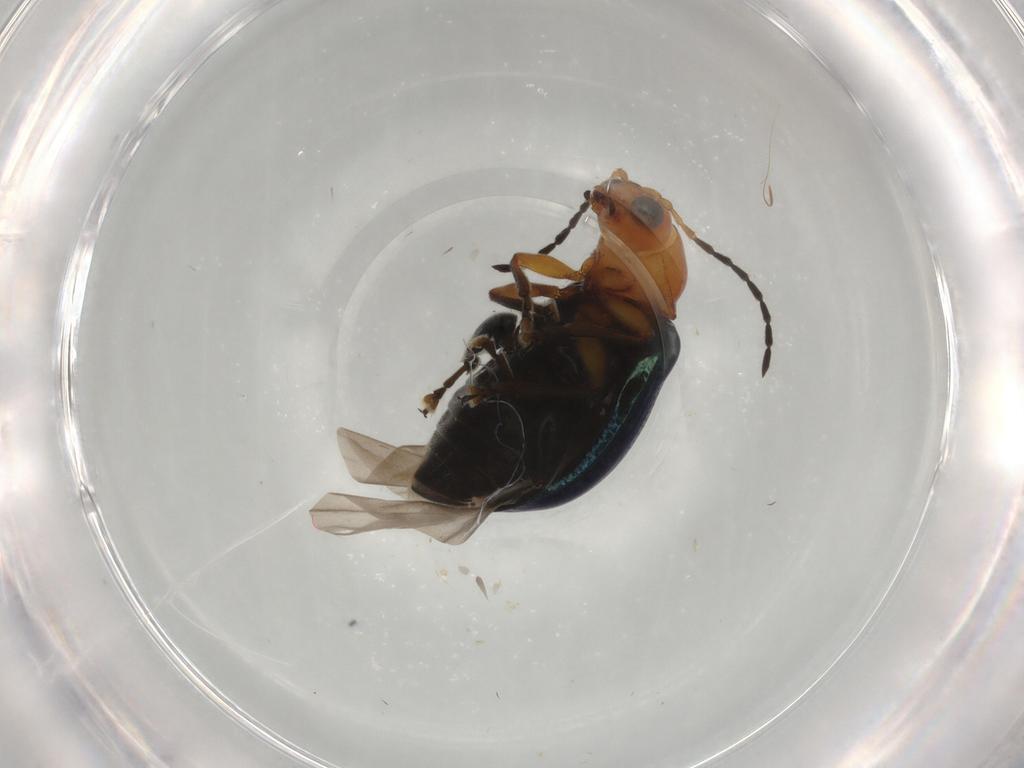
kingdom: Animalia
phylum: Arthropoda
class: Insecta
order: Coleoptera
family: Chrysomelidae
